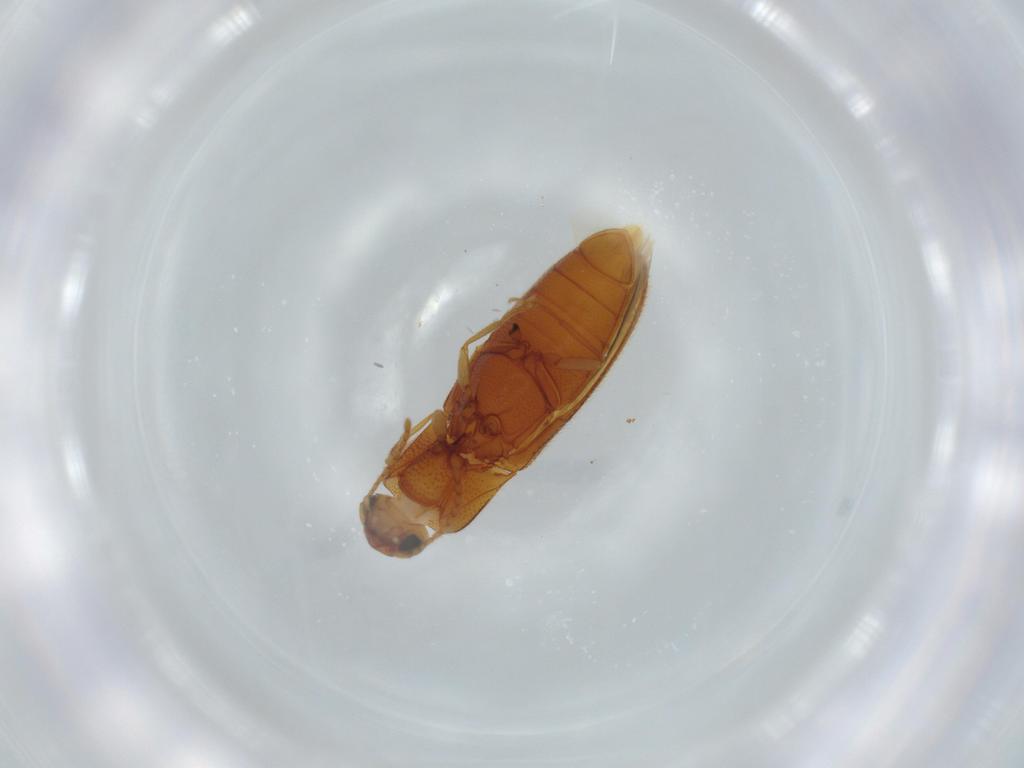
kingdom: Animalia
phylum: Arthropoda
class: Insecta
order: Coleoptera
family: Elateridae
